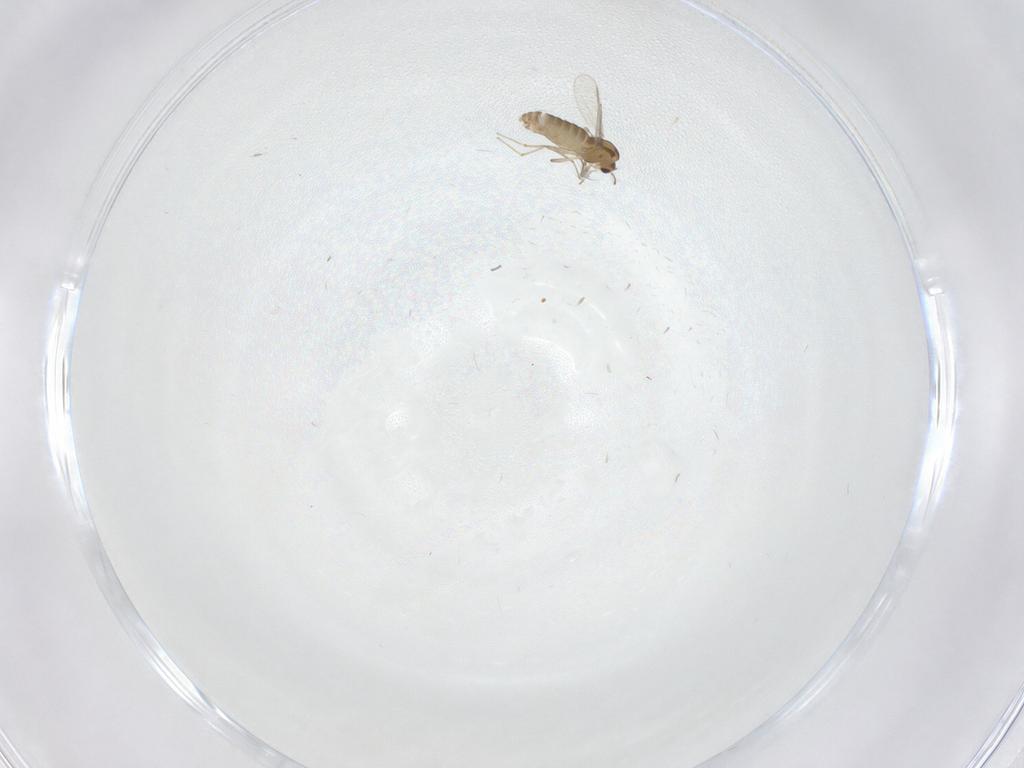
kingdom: Animalia
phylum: Arthropoda
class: Insecta
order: Diptera
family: Ceratopogonidae
